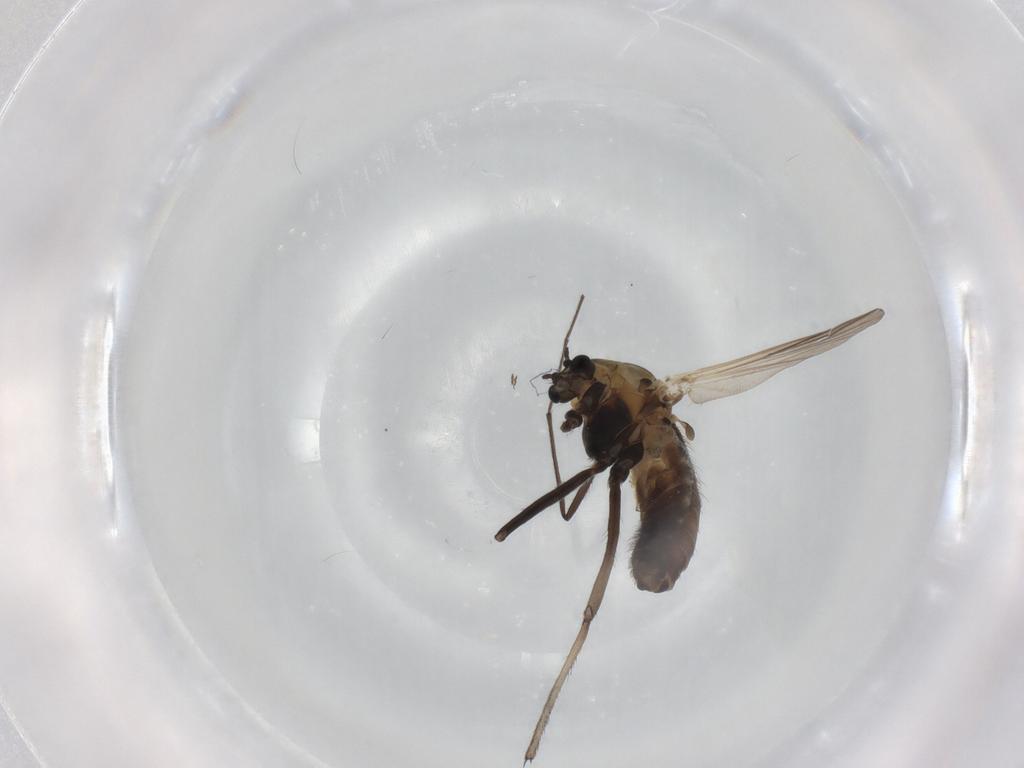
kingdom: Animalia
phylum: Arthropoda
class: Insecta
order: Diptera
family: Chironomidae
